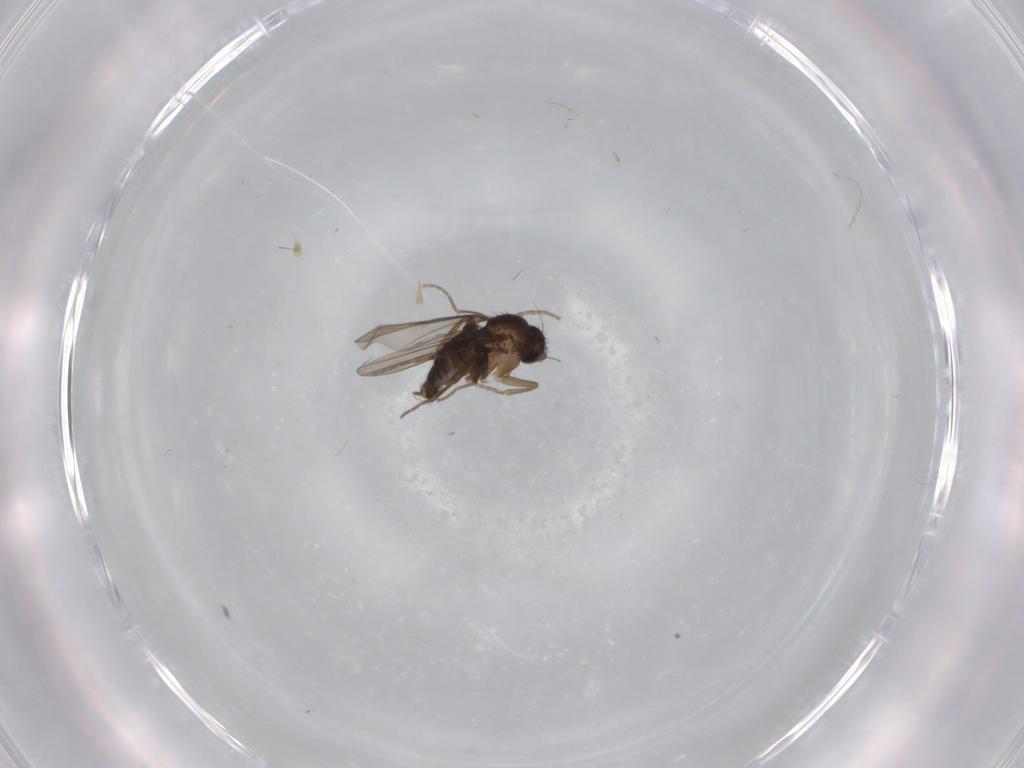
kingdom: Animalia
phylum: Arthropoda
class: Insecta
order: Diptera
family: Cecidomyiidae
